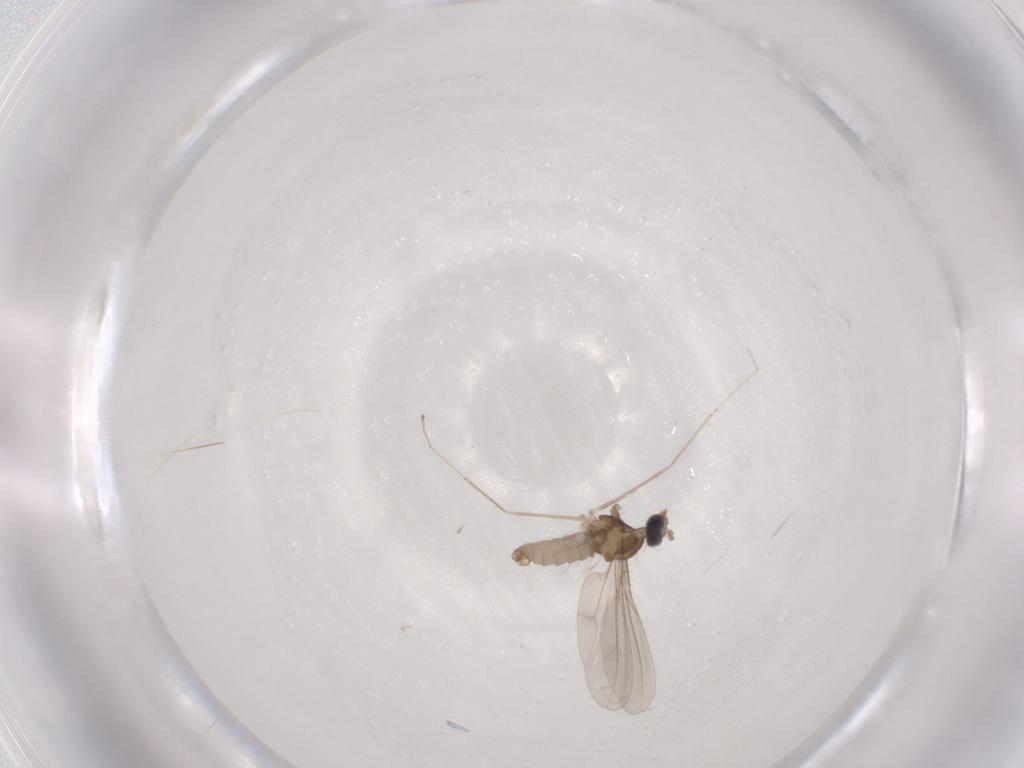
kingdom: Animalia
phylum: Arthropoda
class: Insecta
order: Diptera
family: Cecidomyiidae
